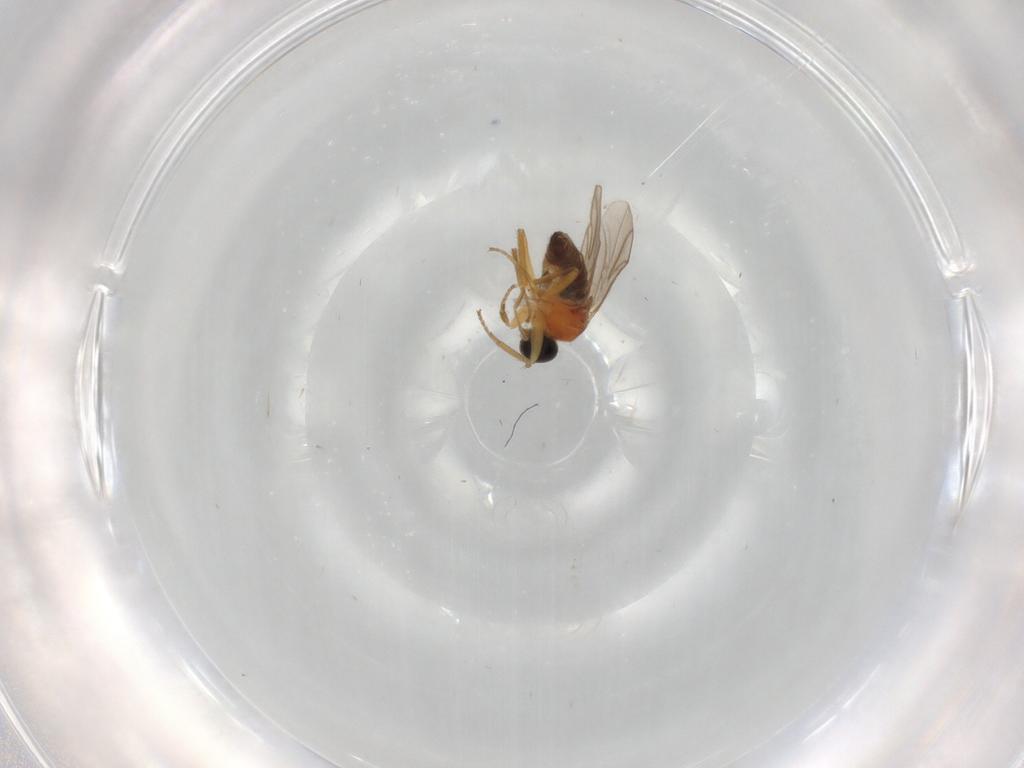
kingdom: Animalia
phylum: Arthropoda
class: Insecta
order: Diptera
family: Hybotidae
